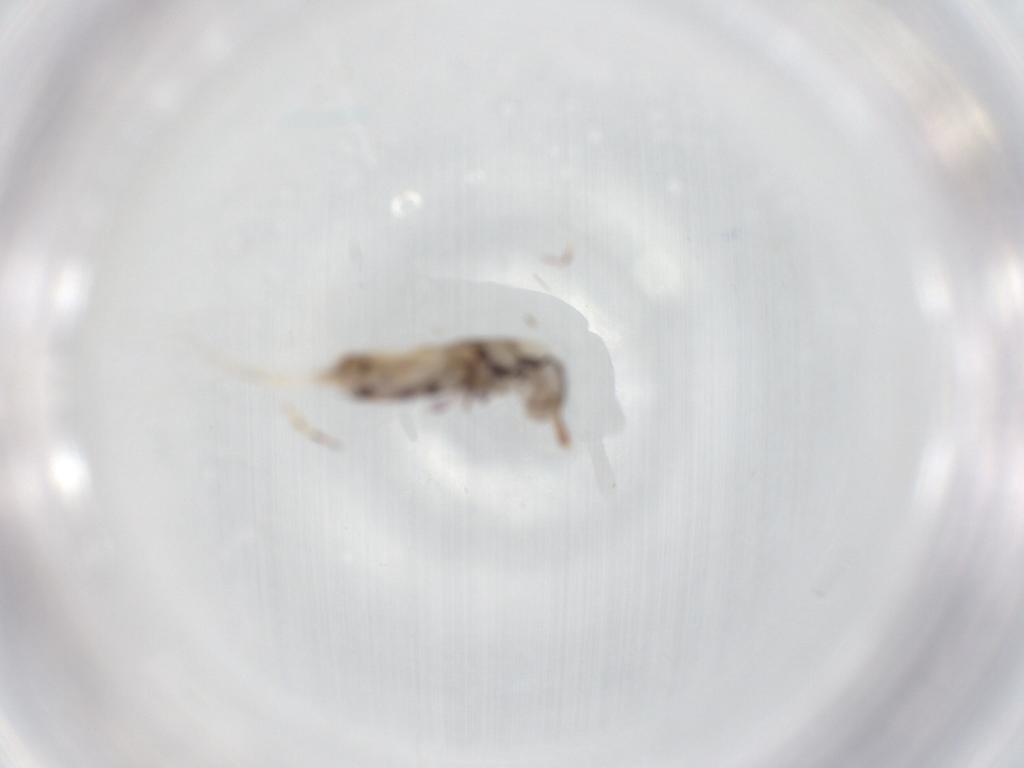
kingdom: Animalia
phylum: Arthropoda
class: Collembola
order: Entomobryomorpha
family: Entomobryidae
